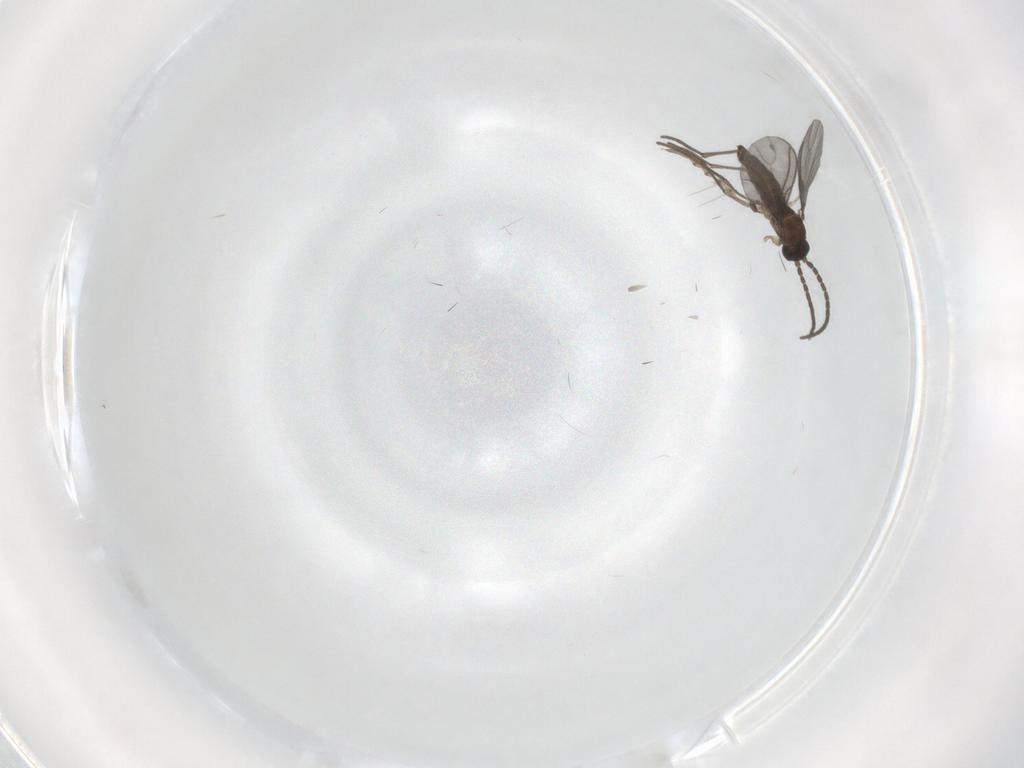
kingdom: Animalia
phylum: Arthropoda
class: Insecta
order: Diptera
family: Sciaridae
